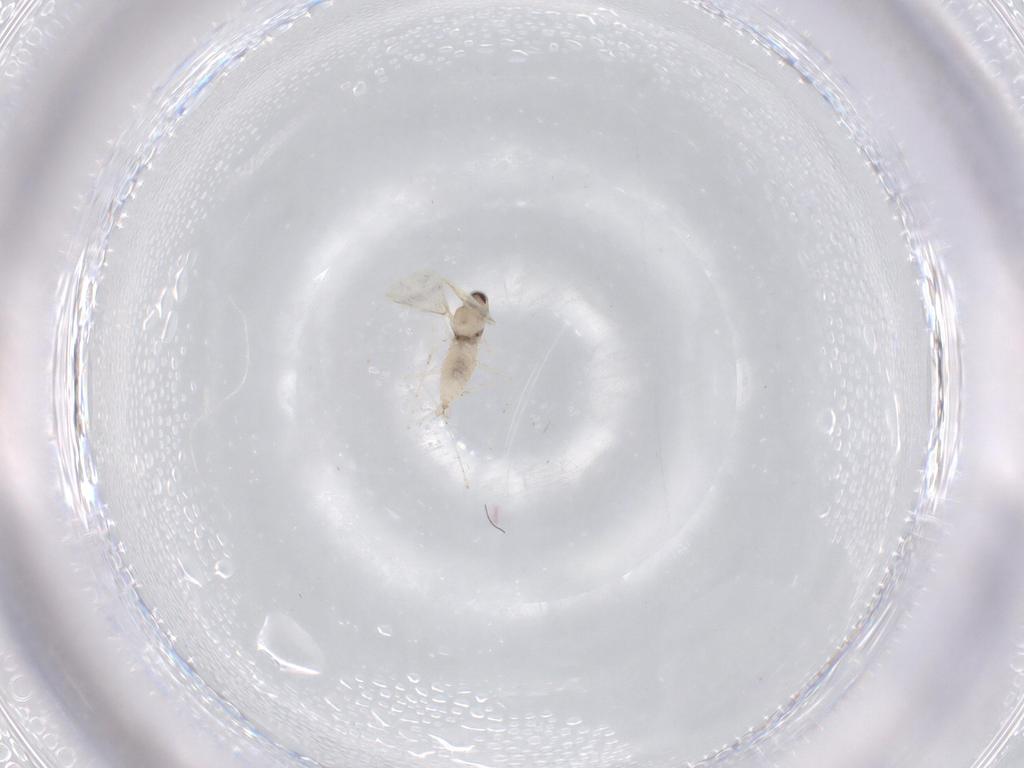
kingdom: Animalia
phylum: Arthropoda
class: Insecta
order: Diptera
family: Cecidomyiidae
